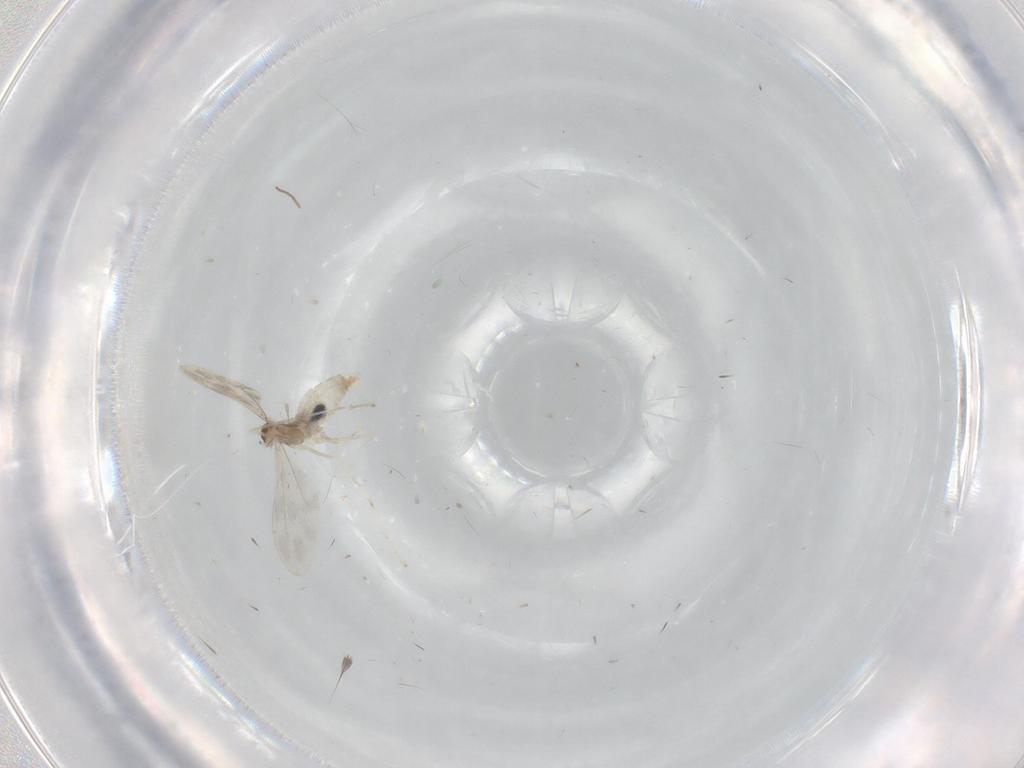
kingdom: Animalia
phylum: Arthropoda
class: Insecta
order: Diptera
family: Cecidomyiidae
